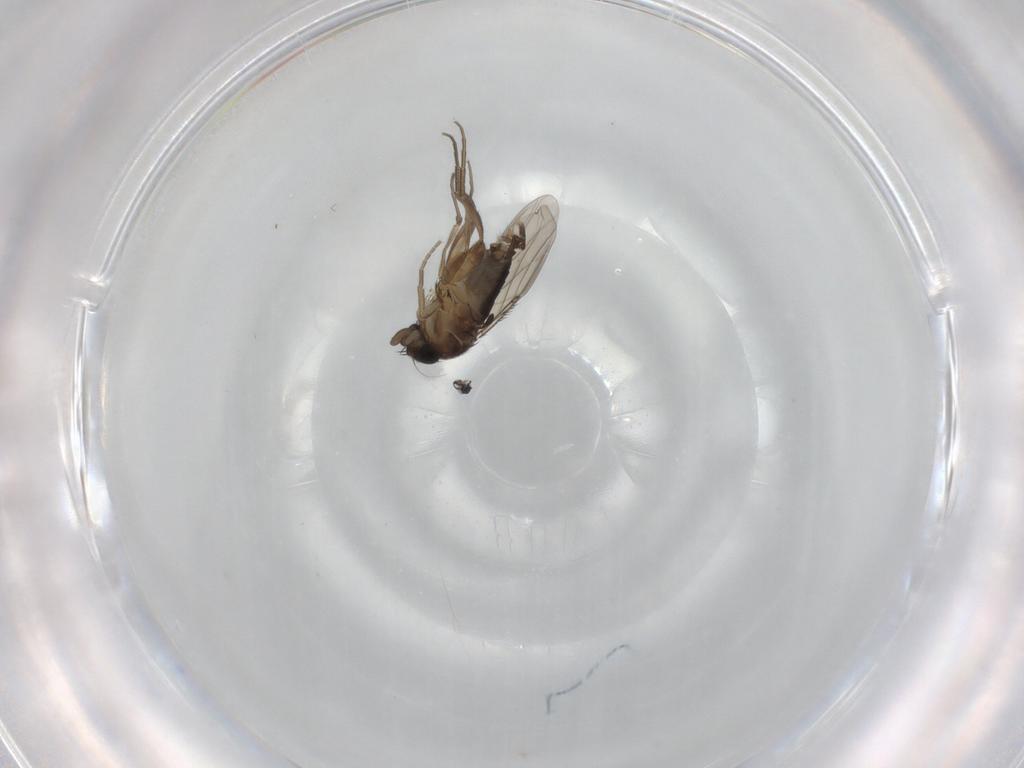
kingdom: Animalia
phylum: Arthropoda
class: Insecta
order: Diptera
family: Phoridae
